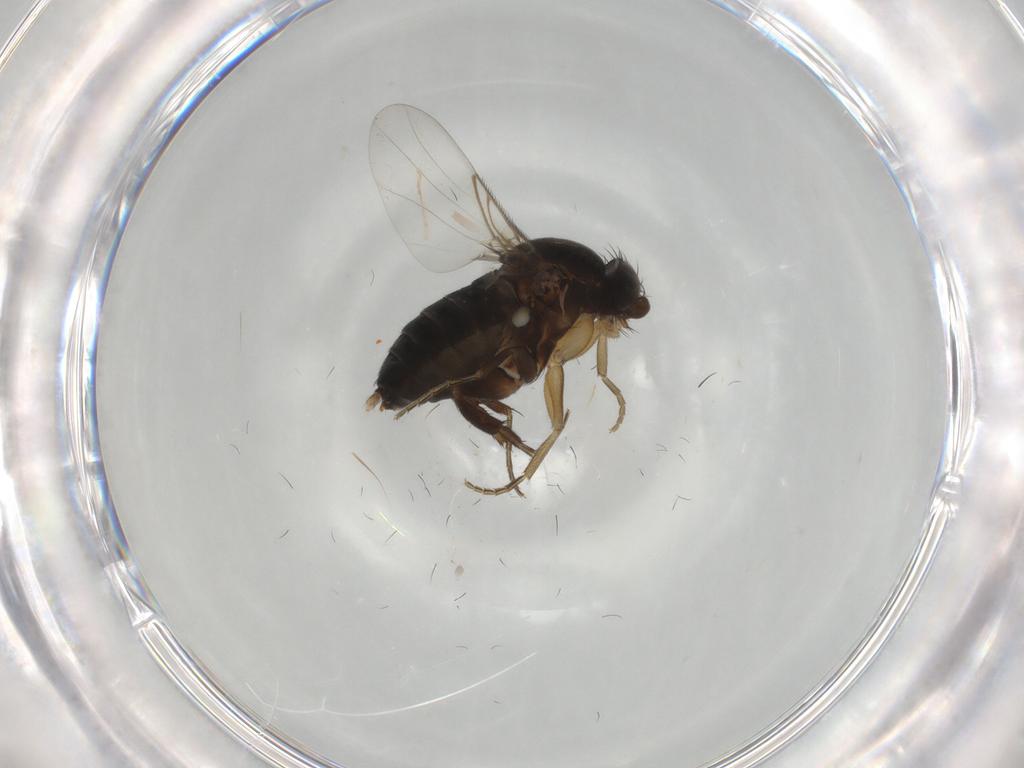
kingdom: Animalia
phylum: Arthropoda
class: Insecta
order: Diptera
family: Phoridae
